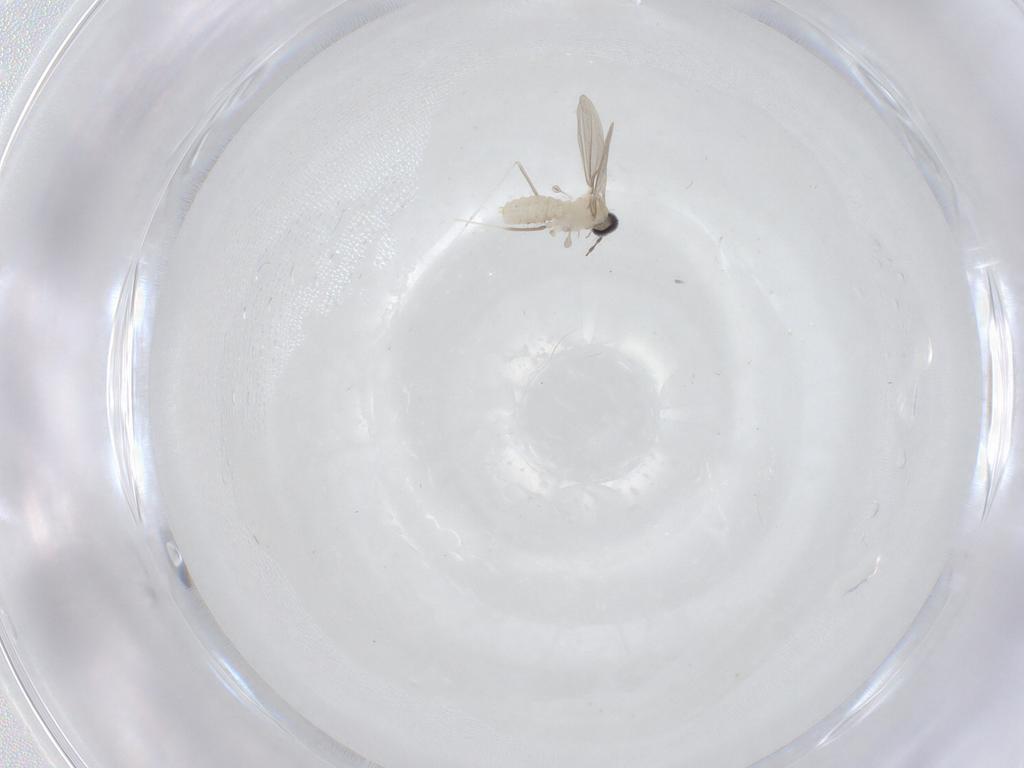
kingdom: Animalia
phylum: Arthropoda
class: Insecta
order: Diptera
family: Cecidomyiidae
